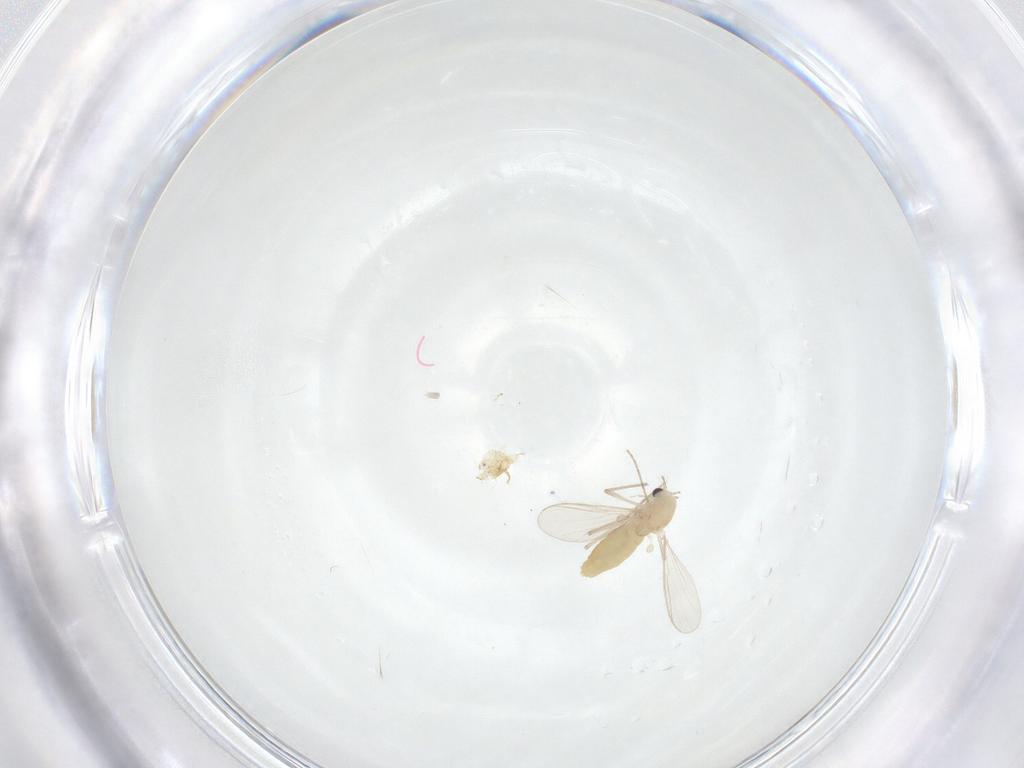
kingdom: Animalia
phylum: Arthropoda
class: Insecta
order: Diptera
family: Chironomidae
